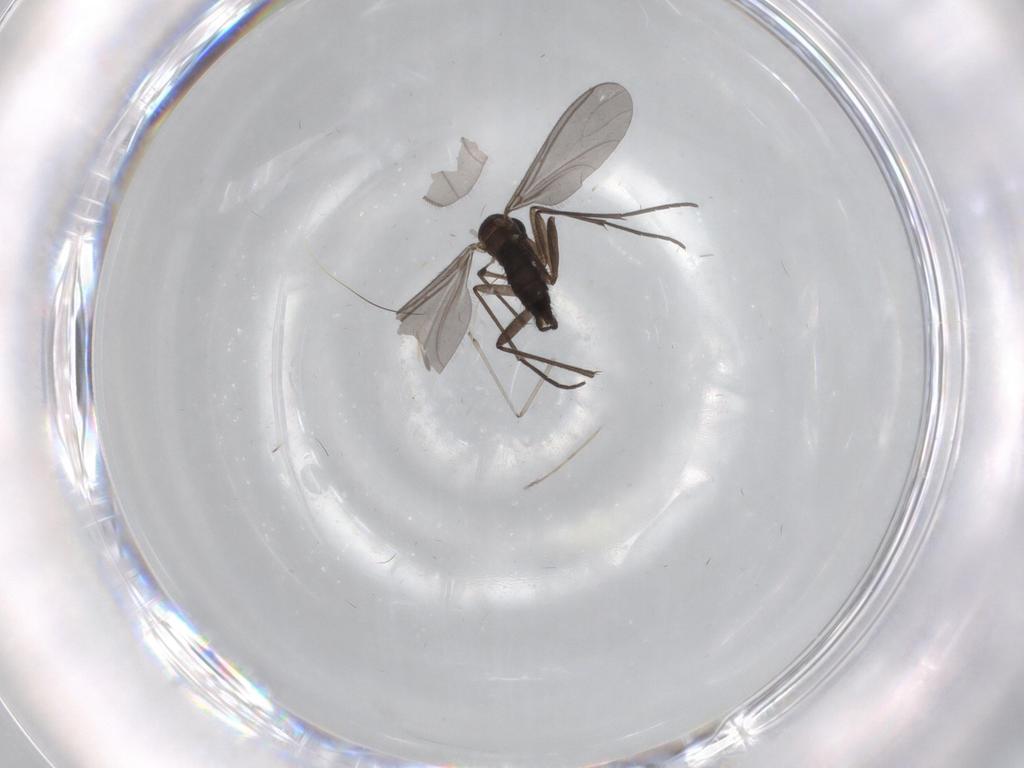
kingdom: Animalia
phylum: Arthropoda
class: Insecta
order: Diptera
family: Sciaridae
